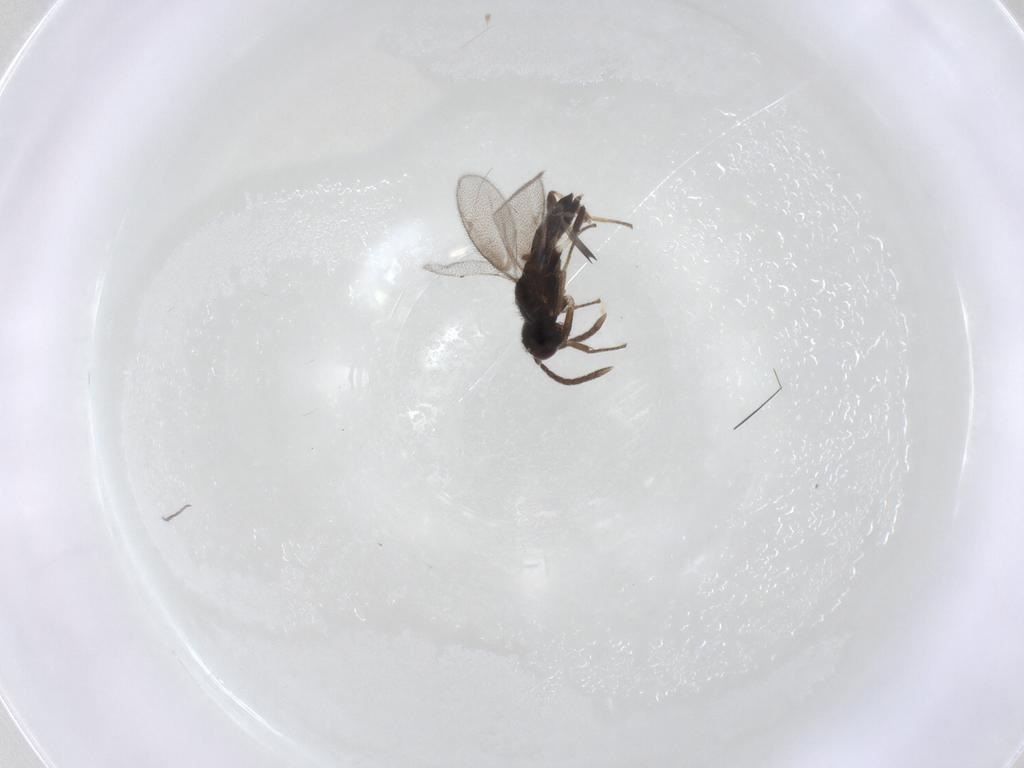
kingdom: Animalia
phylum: Arthropoda
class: Insecta
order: Hymenoptera
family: Eupelmidae
